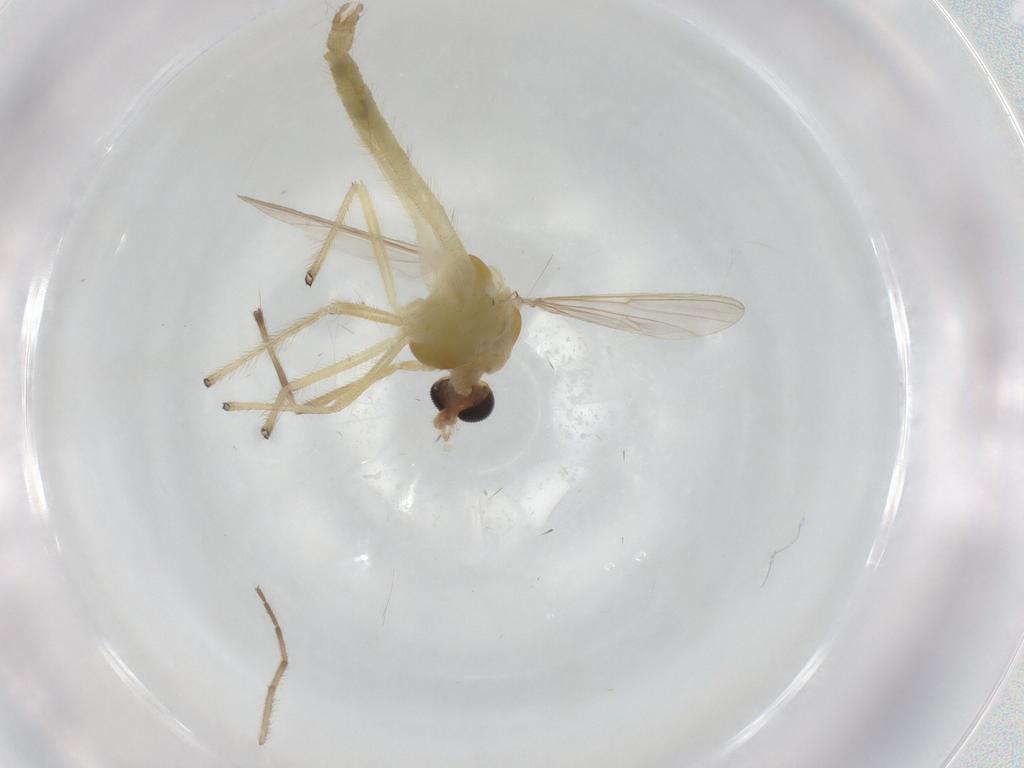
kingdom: Animalia
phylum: Arthropoda
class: Insecta
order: Diptera
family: Chironomidae
